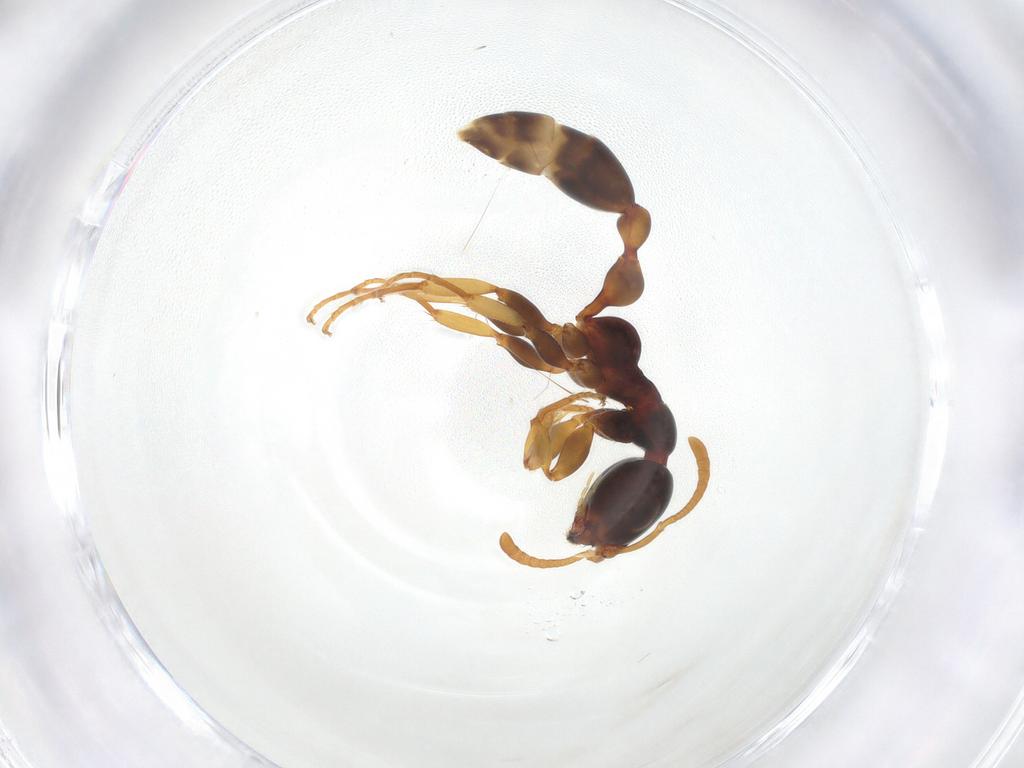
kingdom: Animalia
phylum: Arthropoda
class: Insecta
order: Hymenoptera
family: Formicidae
